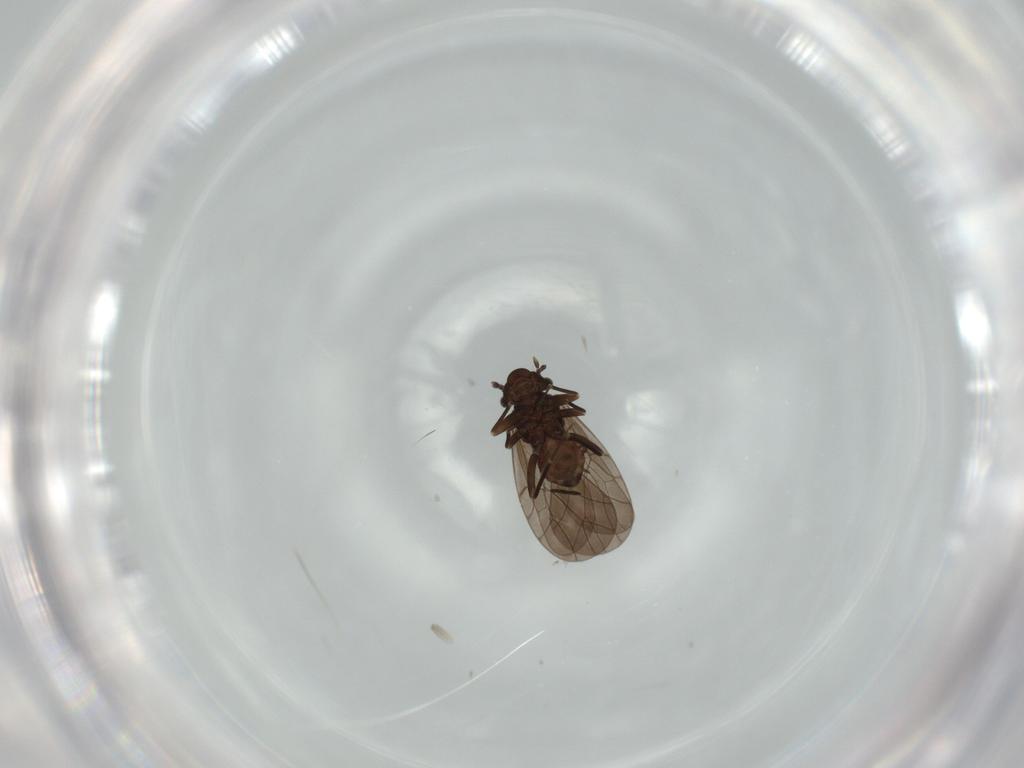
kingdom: Animalia
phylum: Arthropoda
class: Insecta
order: Psocodea
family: Lepidopsocidae
